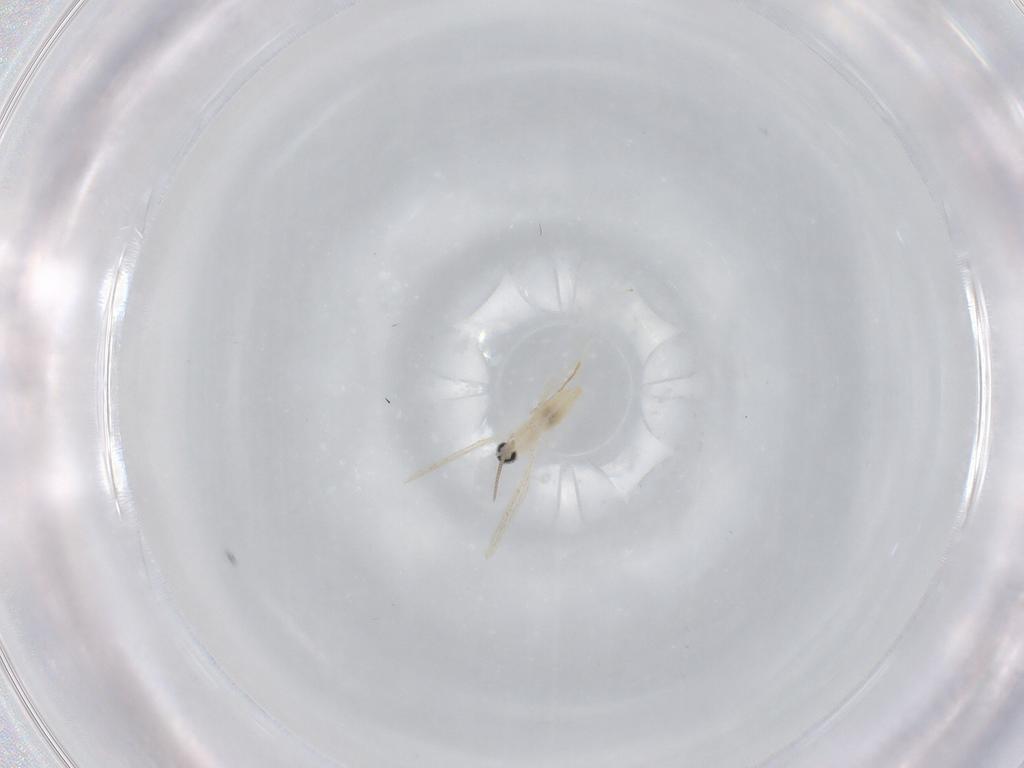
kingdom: Animalia
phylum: Arthropoda
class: Insecta
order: Diptera
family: Cecidomyiidae
